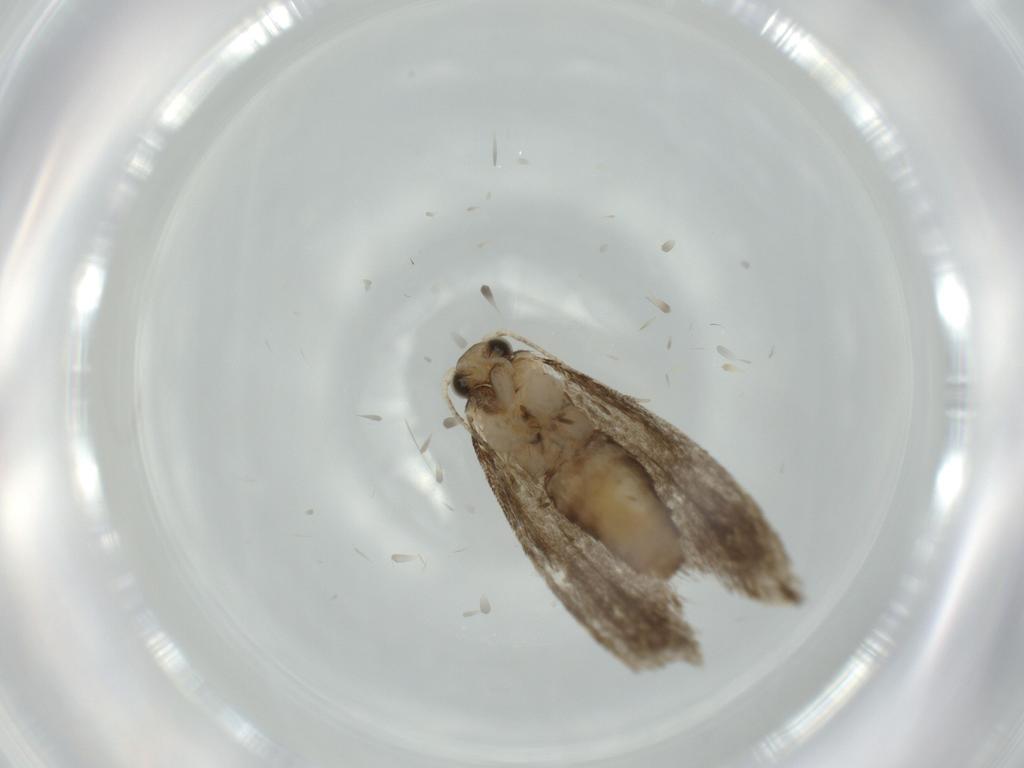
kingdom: Animalia
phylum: Arthropoda
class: Insecta
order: Lepidoptera
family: Tineidae
